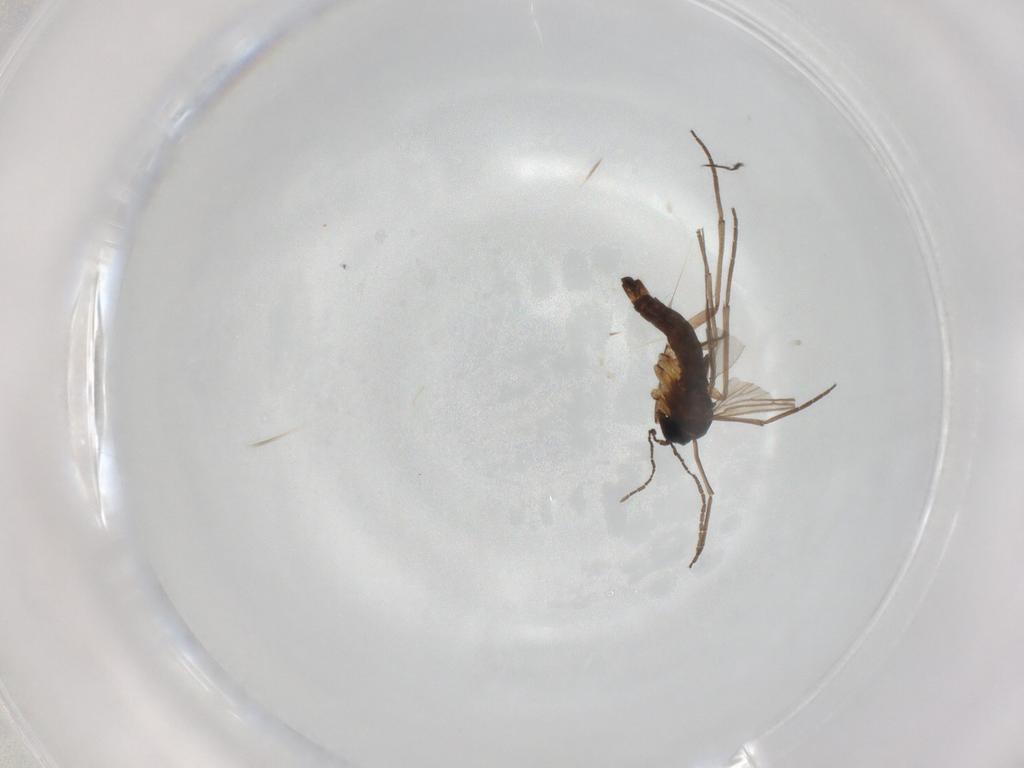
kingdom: Animalia
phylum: Arthropoda
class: Insecta
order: Diptera
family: Sciaridae
